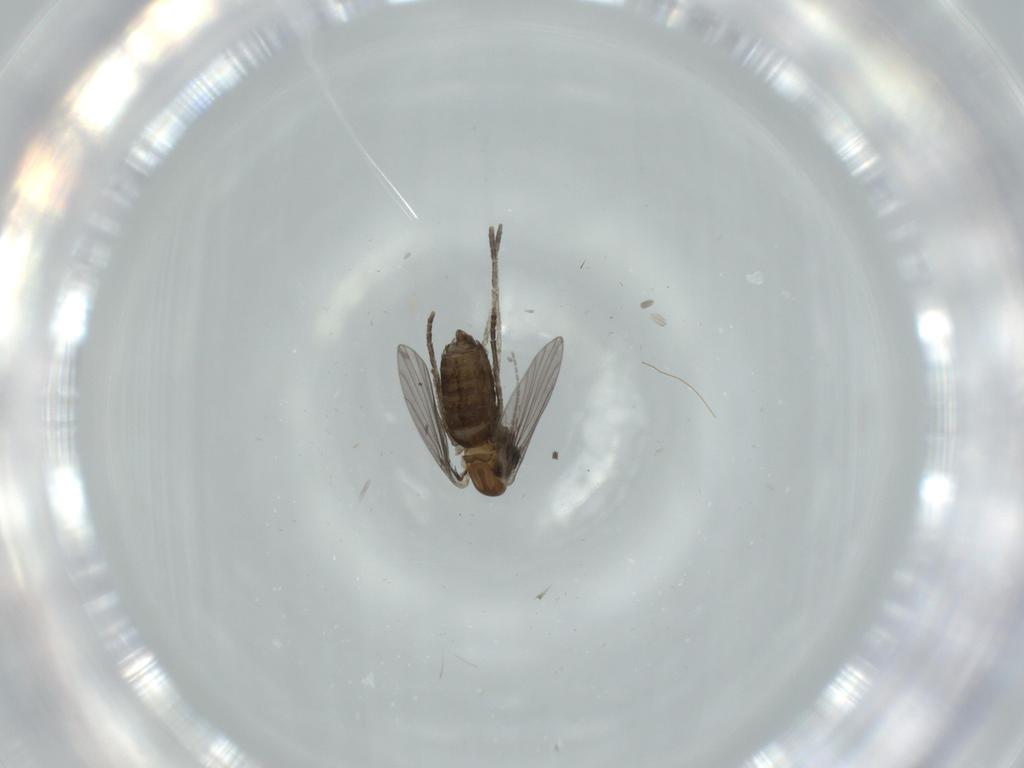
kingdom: Animalia
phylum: Arthropoda
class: Insecta
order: Diptera
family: Psychodidae
